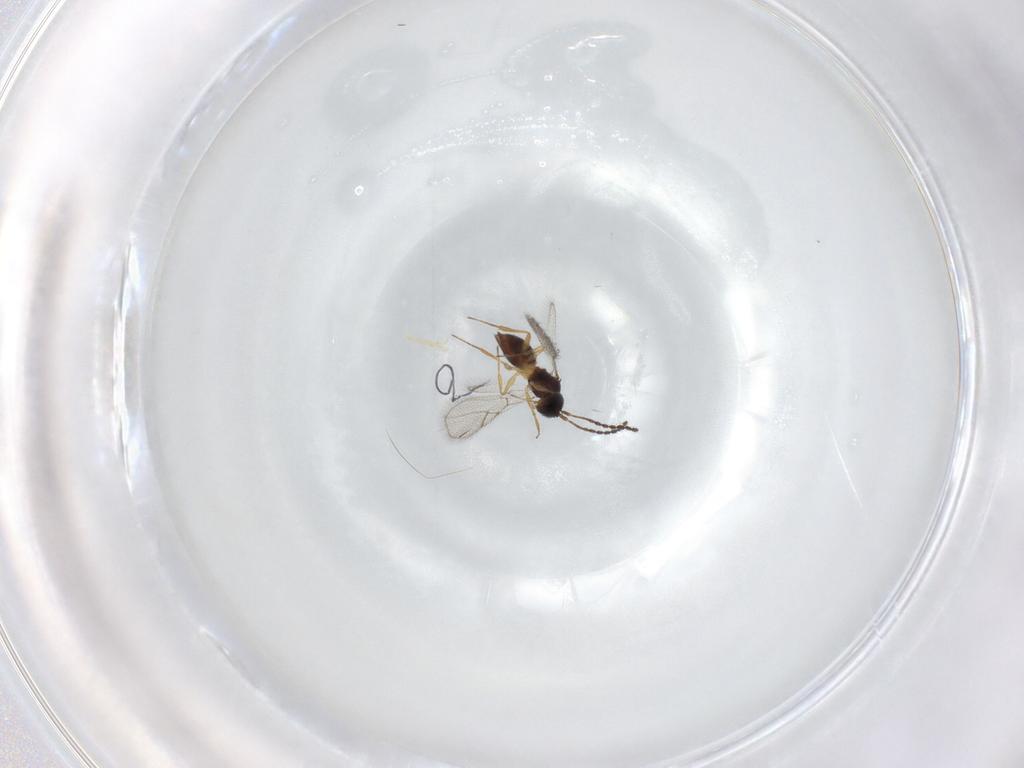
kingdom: Animalia
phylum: Arthropoda
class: Insecta
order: Hymenoptera
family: Figitidae
